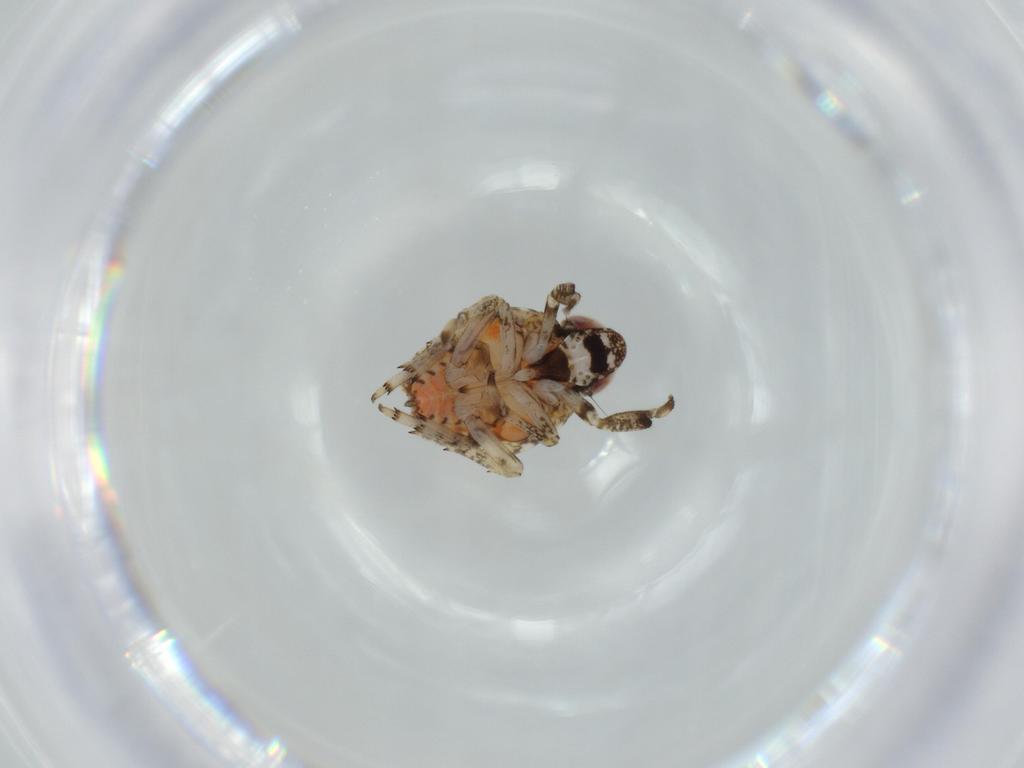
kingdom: Animalia
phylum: Arthropoda
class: Insecta
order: Hemiptera
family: Issidae
